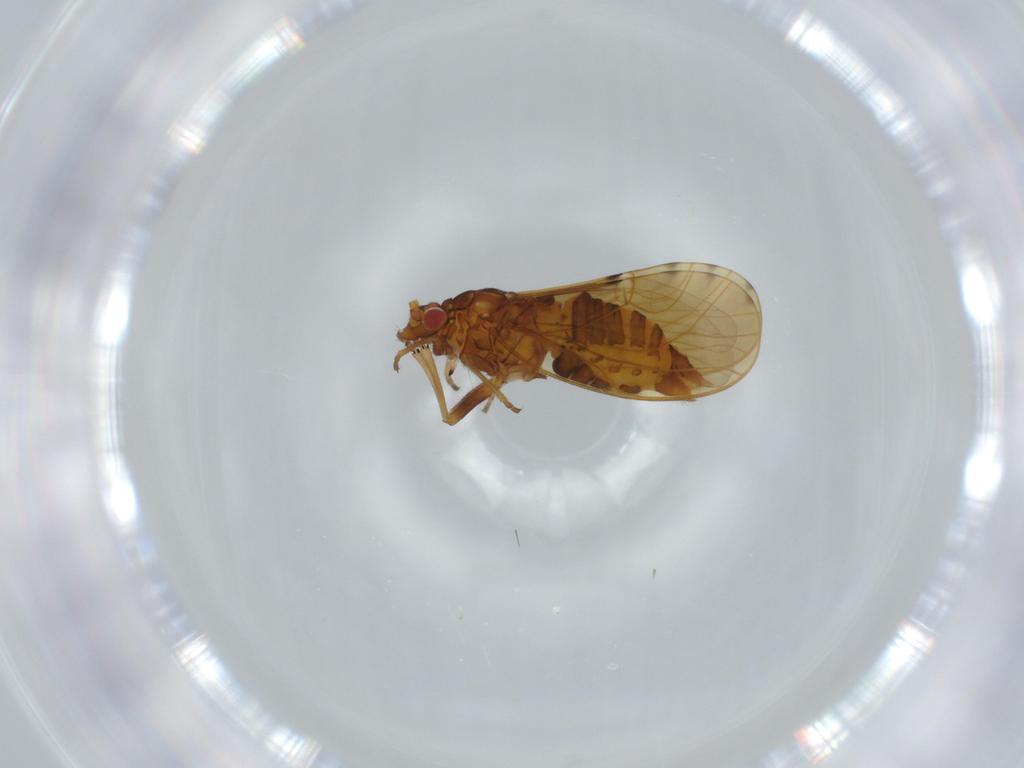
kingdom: Animalia
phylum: Arthropoda
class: Insecta
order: Hemiptera
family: Psylloidea_incertae_sedis
